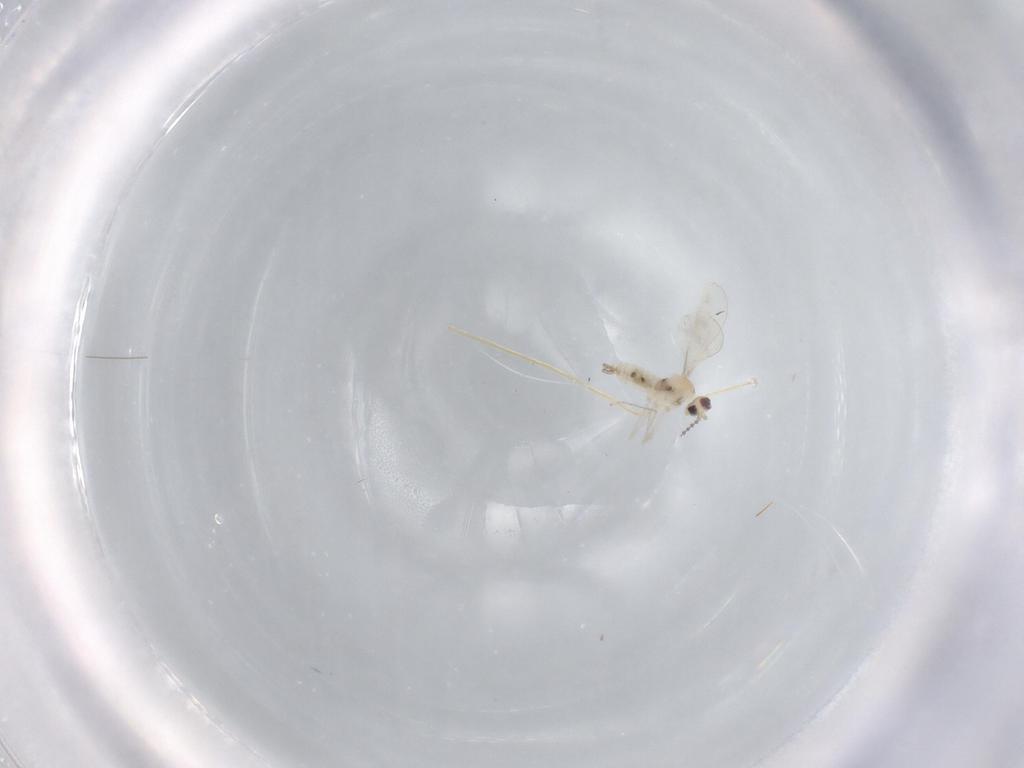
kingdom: Animalia
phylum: Arthropoda
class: Insecta
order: Diptera
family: Cecidomyiidae
